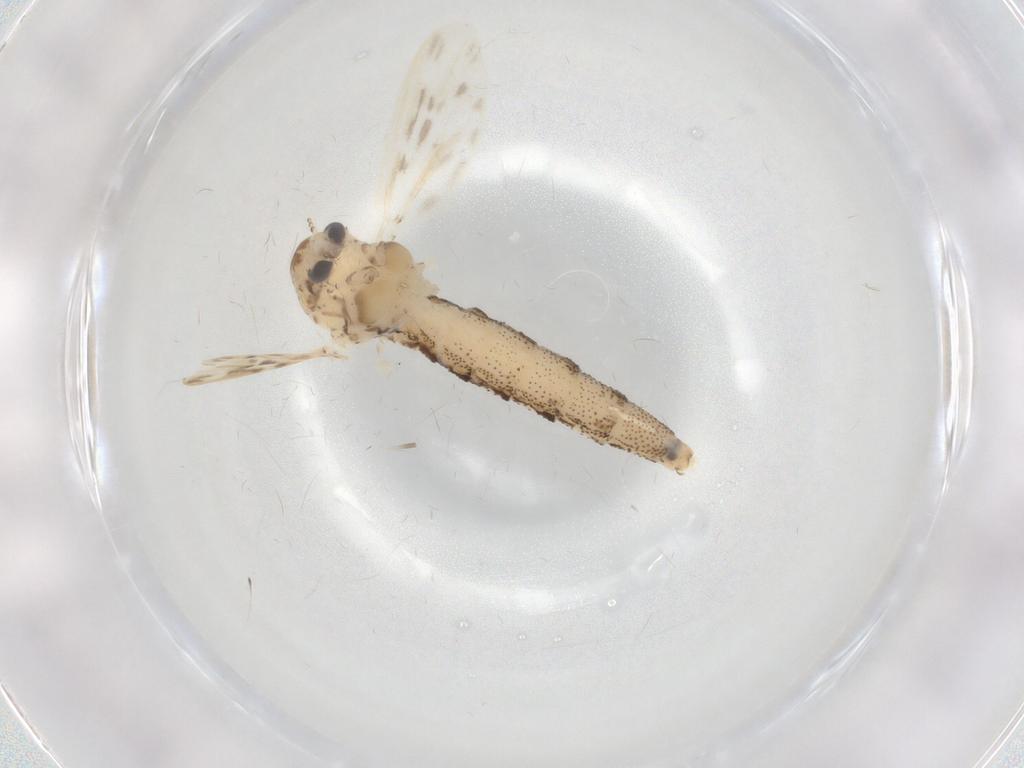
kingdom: Animalia
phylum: Arthropoda
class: Insecta
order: Diptera
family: Chaoboridae
